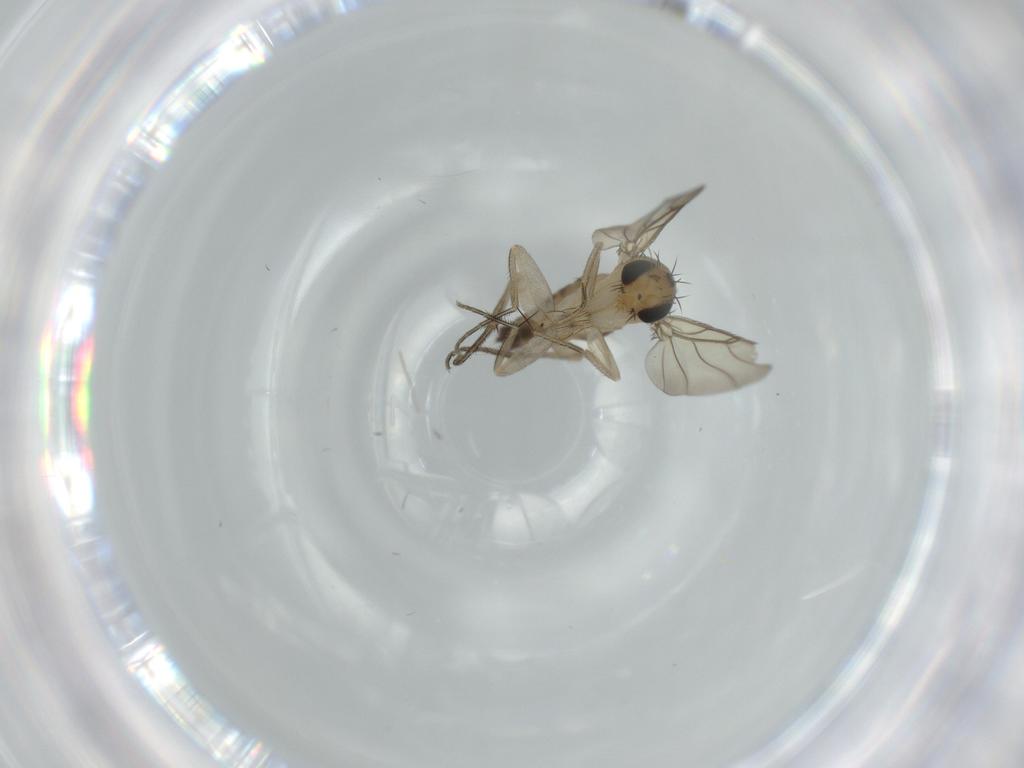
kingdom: Animalia
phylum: Arthropoda
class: Insecta
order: Diptera
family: Phoridae
